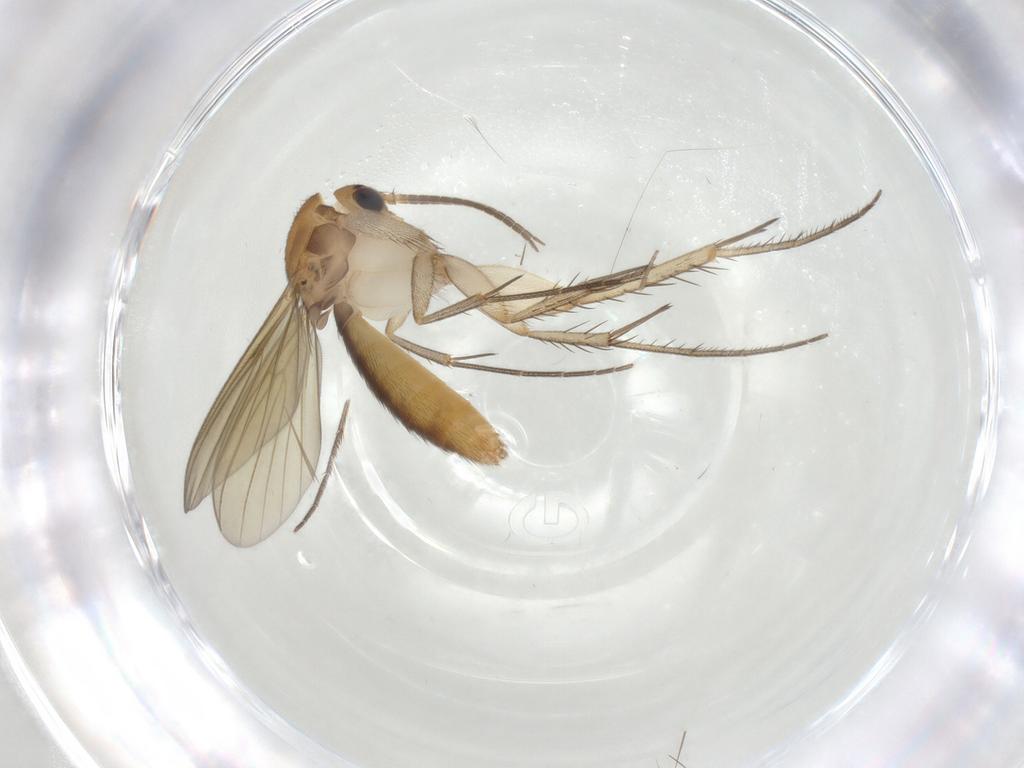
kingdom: Animalia
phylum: Arthropoda
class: Insecta
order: Diptera
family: Mycetophilidae
